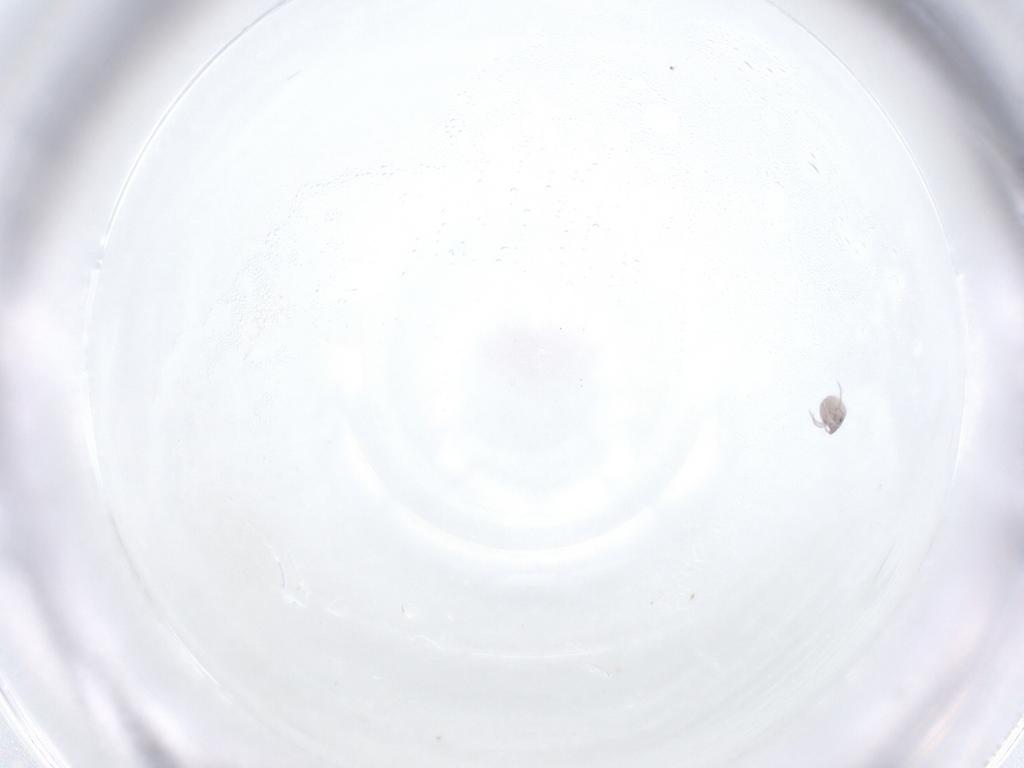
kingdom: Animalia
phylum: Arthropoda
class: Arachnida
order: Trombidiformes
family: Pionidae
